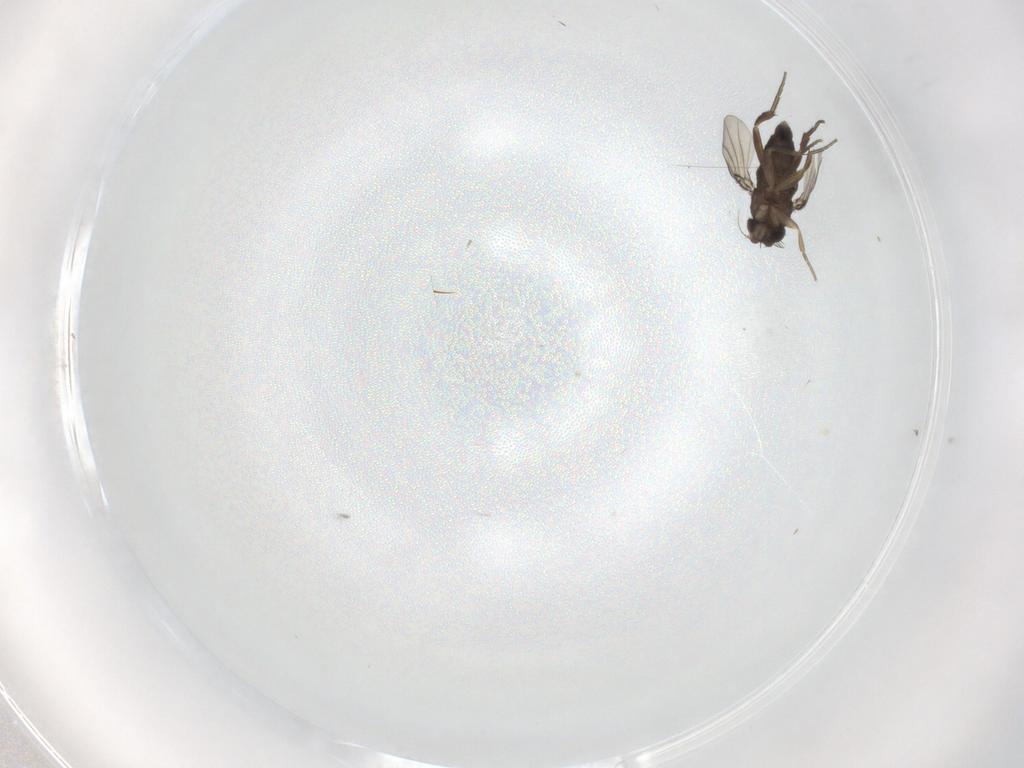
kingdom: Animalia
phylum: Arthropoda
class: Insecta
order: Diptera
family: Phoridae
